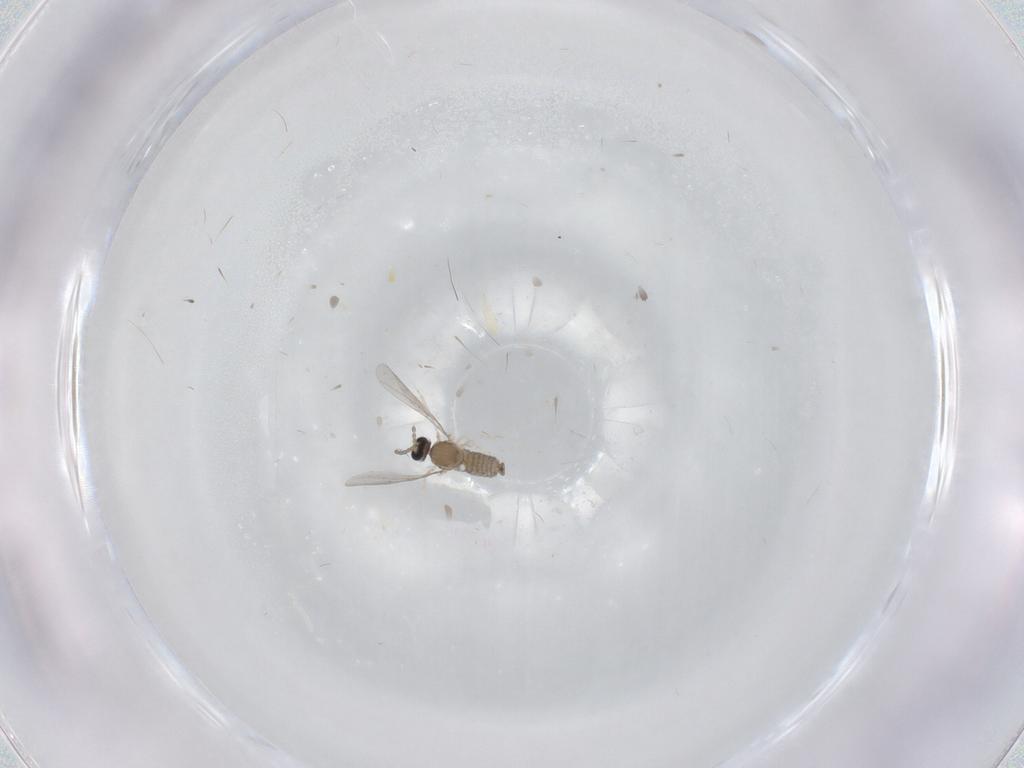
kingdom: Animalia
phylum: Arthropoda
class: Insecta
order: Diptera
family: Cecidomyiidae
